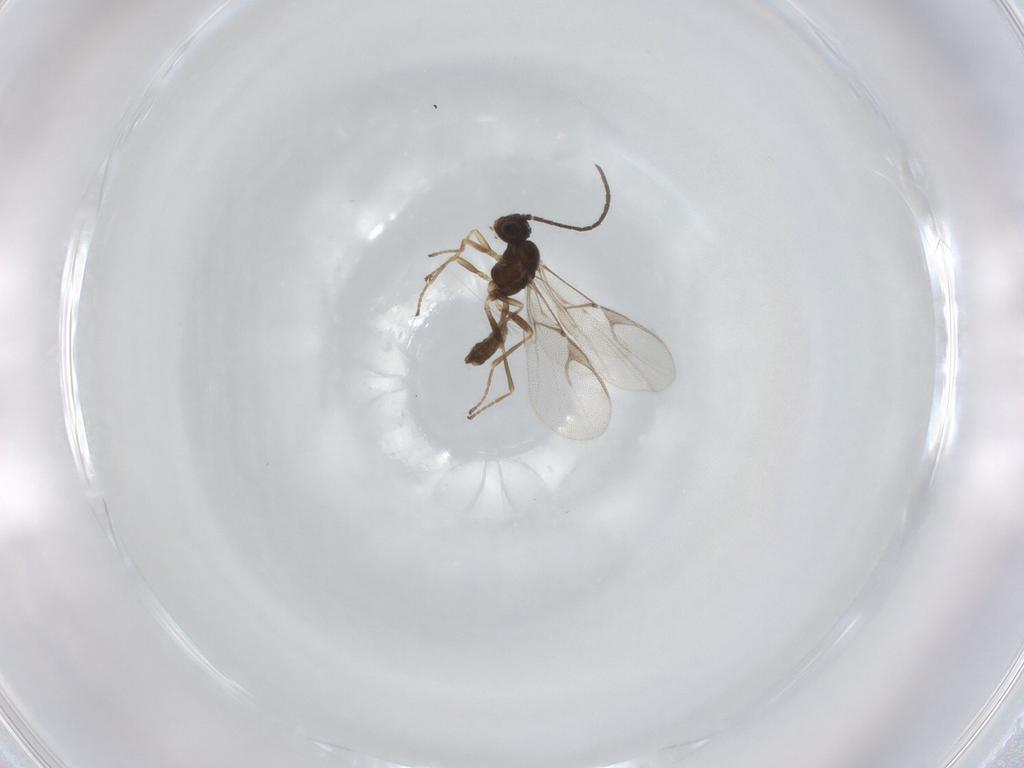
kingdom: Animalia
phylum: Arthropoda
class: Insecta
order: Hymenoptera
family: Braconidae
